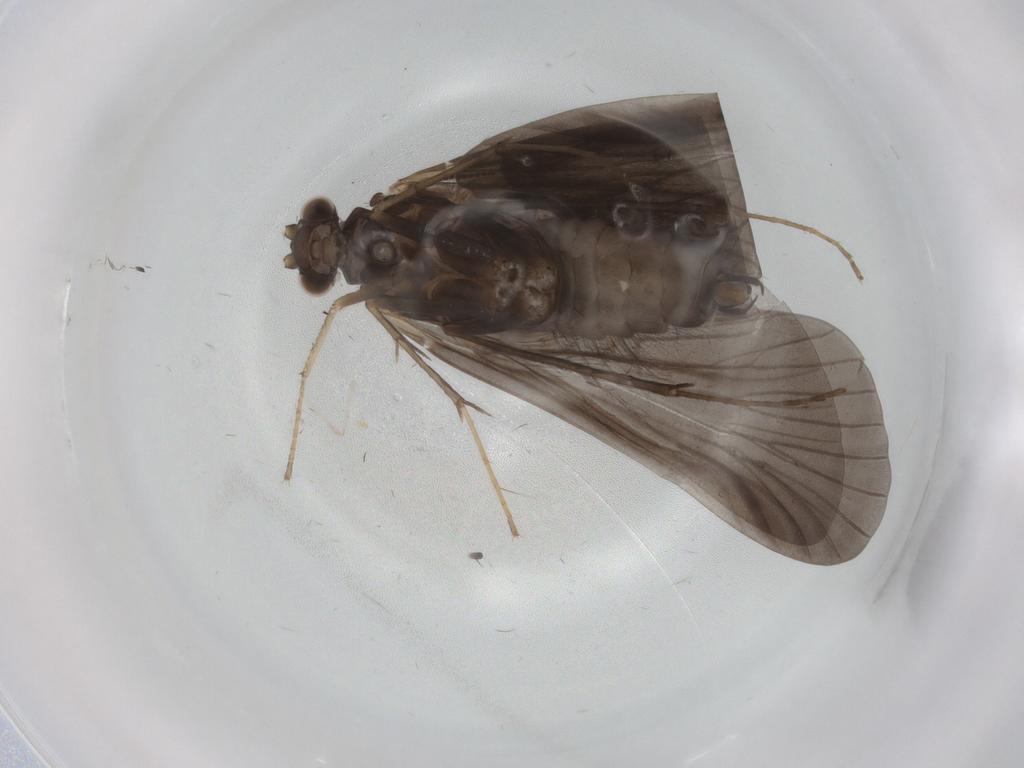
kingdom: Animalia
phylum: Arthropoda
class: Insecta
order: Trichoptera
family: Hydropsychidae
